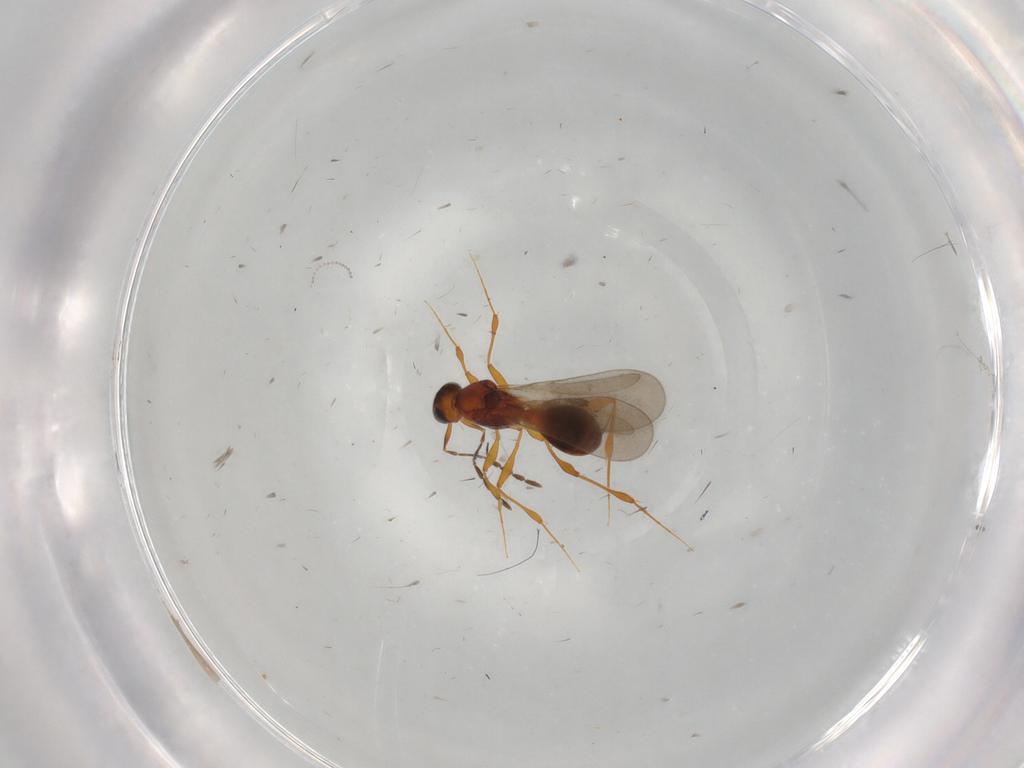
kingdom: Animalia
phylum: Arthropoda
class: Insecta
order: Hymenoptera
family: Platygastridae
